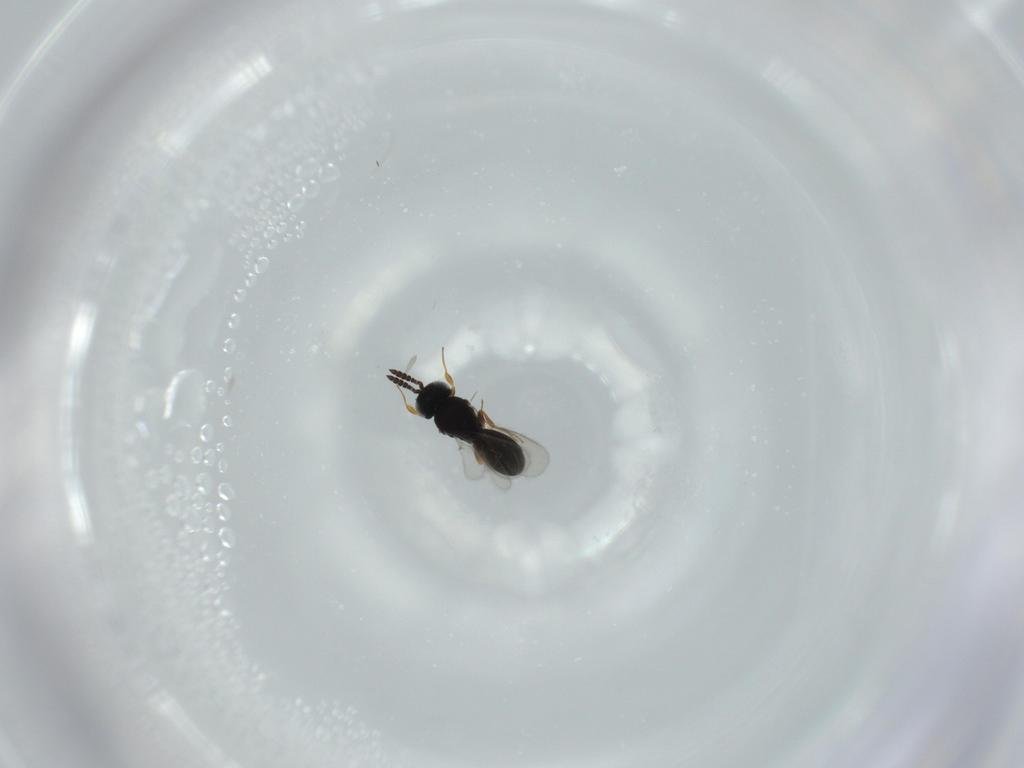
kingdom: Animalia
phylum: Arthropoda
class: Insecta
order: Hymenoptera
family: Scelionidae
